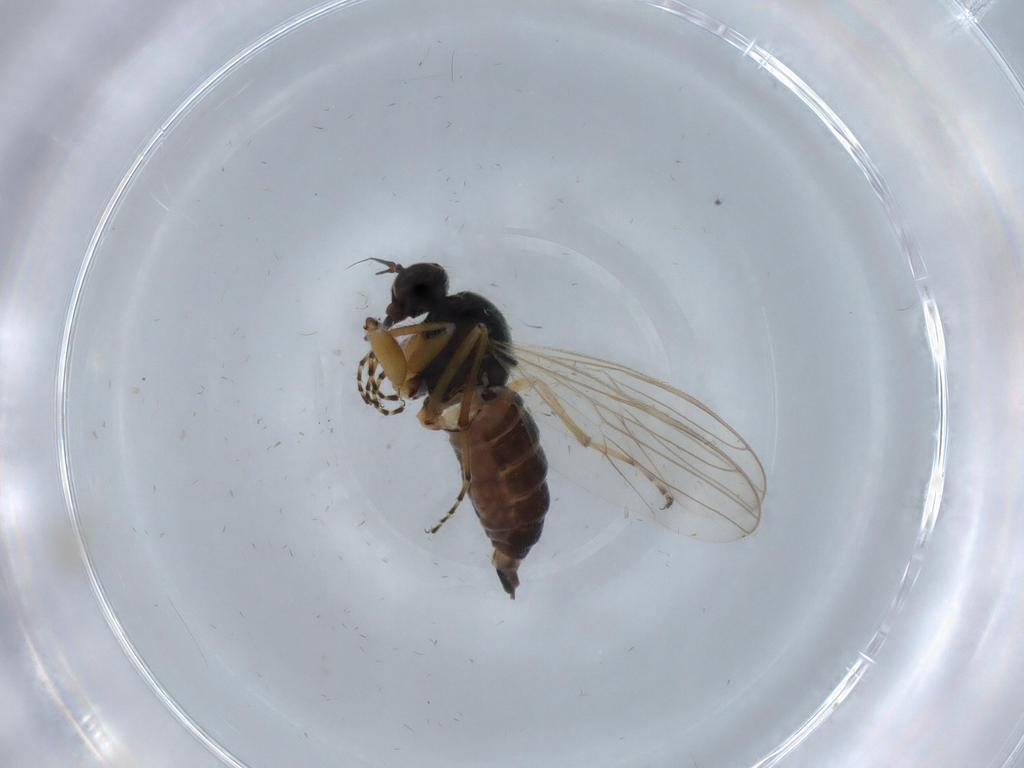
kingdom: Animalia
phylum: Arthropoda
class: Insecta
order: Diptera
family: Hybotidae
